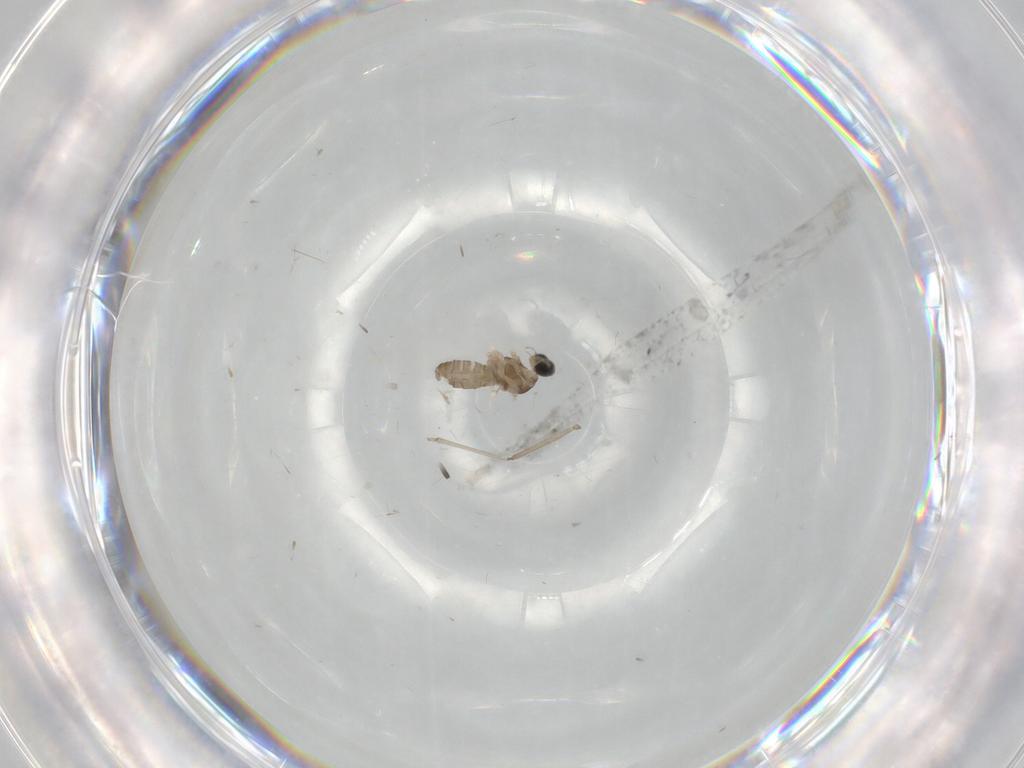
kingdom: Animalia
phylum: Arthropoda
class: Insecta
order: Diptera
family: Cecidomyiidae
